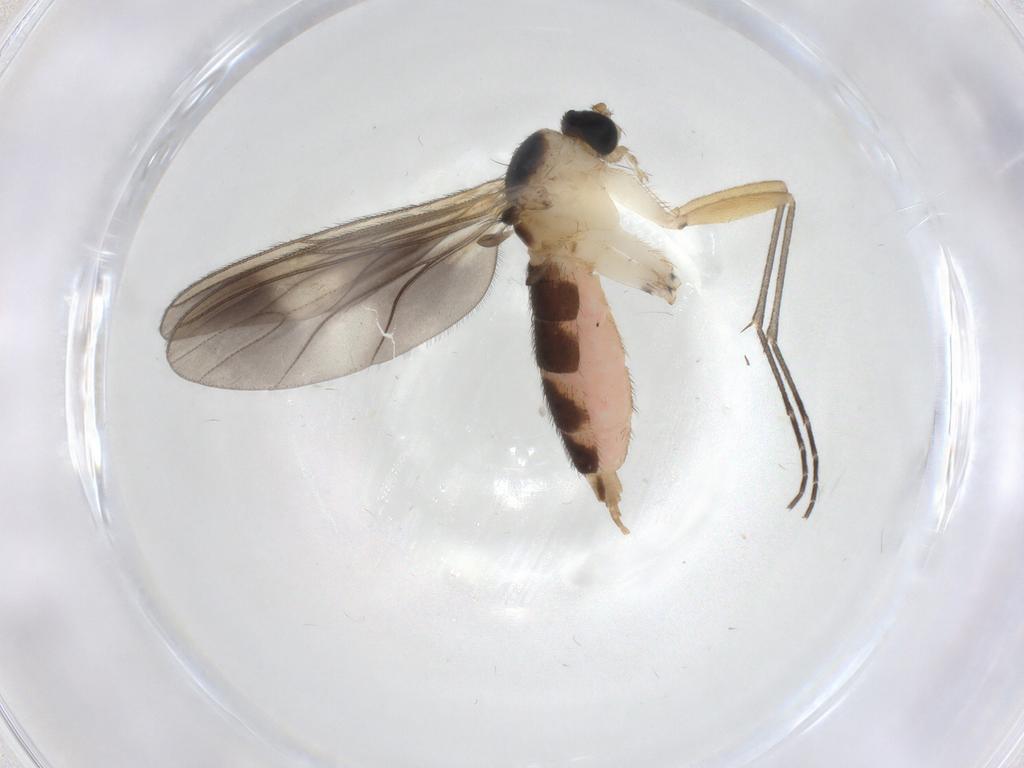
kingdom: Animalia
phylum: Arthropoda
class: Insecta
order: Diptera
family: Sciaridae
